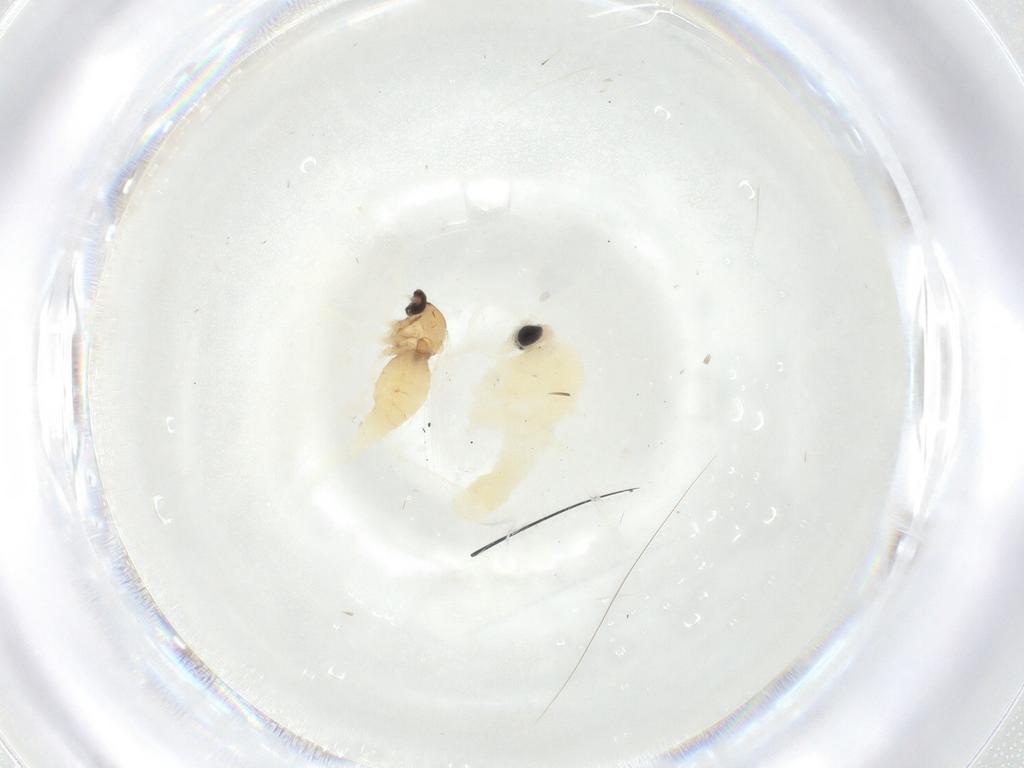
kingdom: Animalia
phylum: Arthropoda
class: Insecta
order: Diptera
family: Cecidomyiidae
